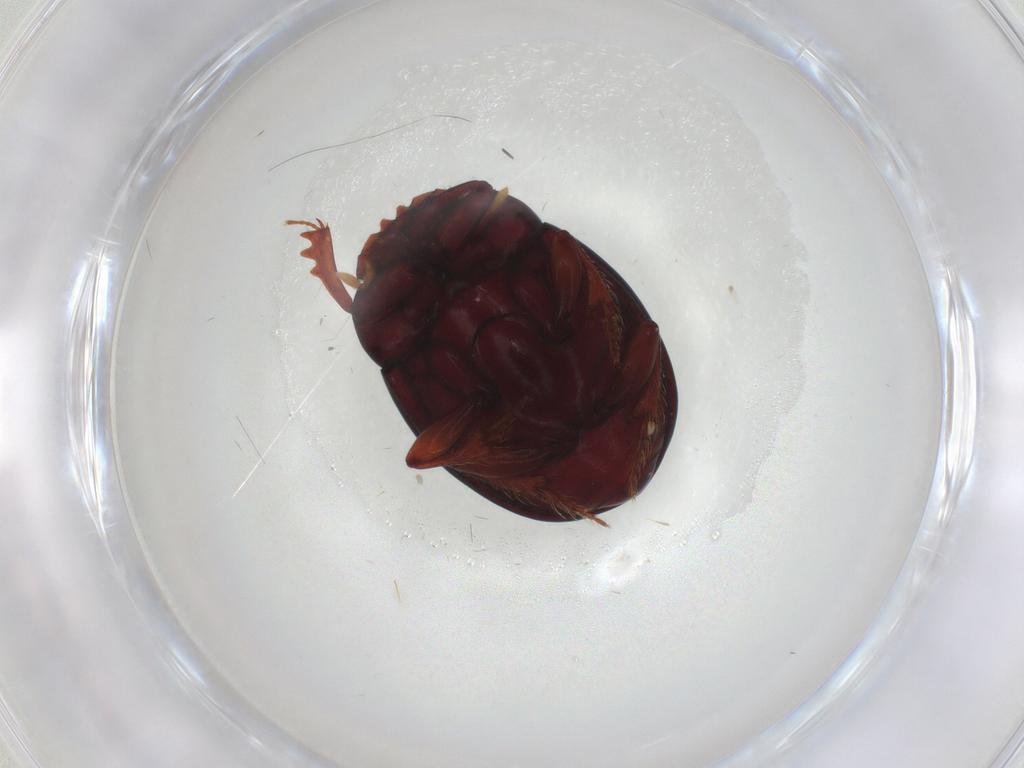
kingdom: Animalia
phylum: Arthropoda
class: Insecta
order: Coleoptera
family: Scarabaeidae
